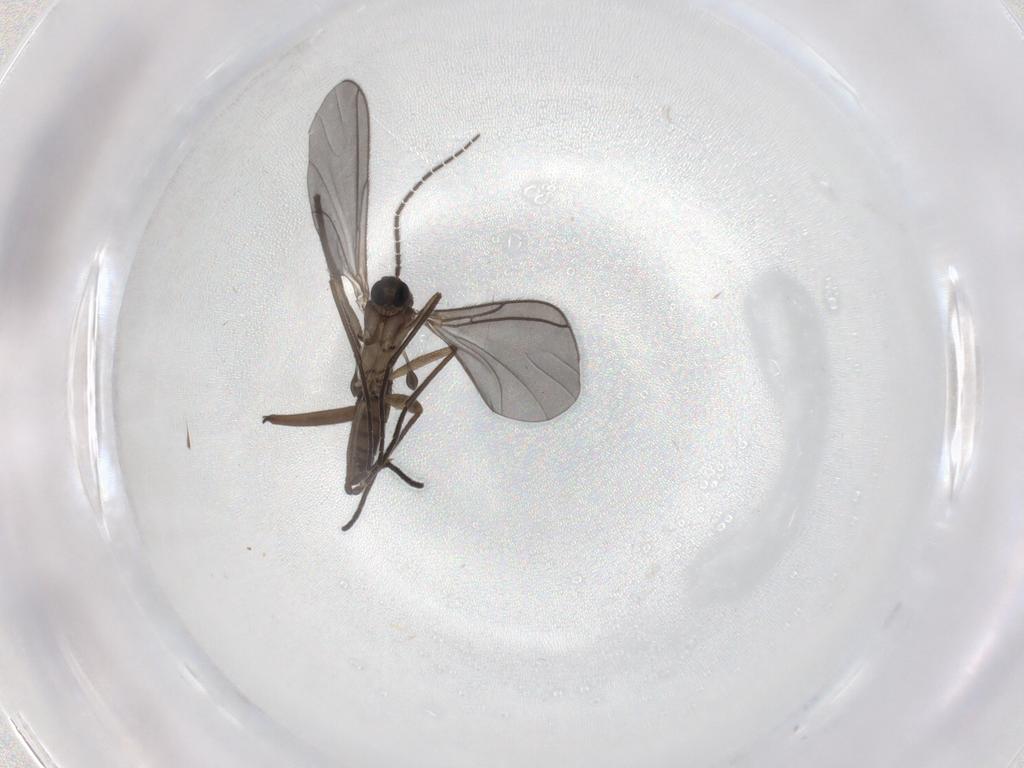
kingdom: Animalia
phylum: Arthropoda
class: Insecta
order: Diptera
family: Sciaridae
